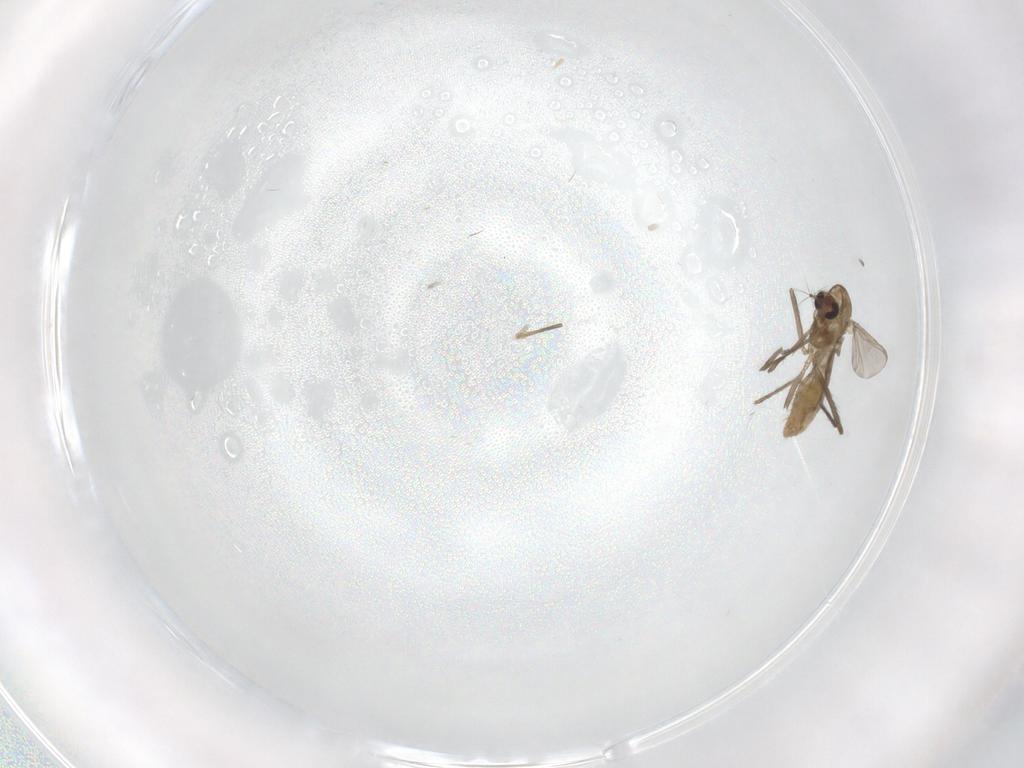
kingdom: Animalia
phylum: Arthropoda
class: Insecta
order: Diptera
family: Chironomidae
